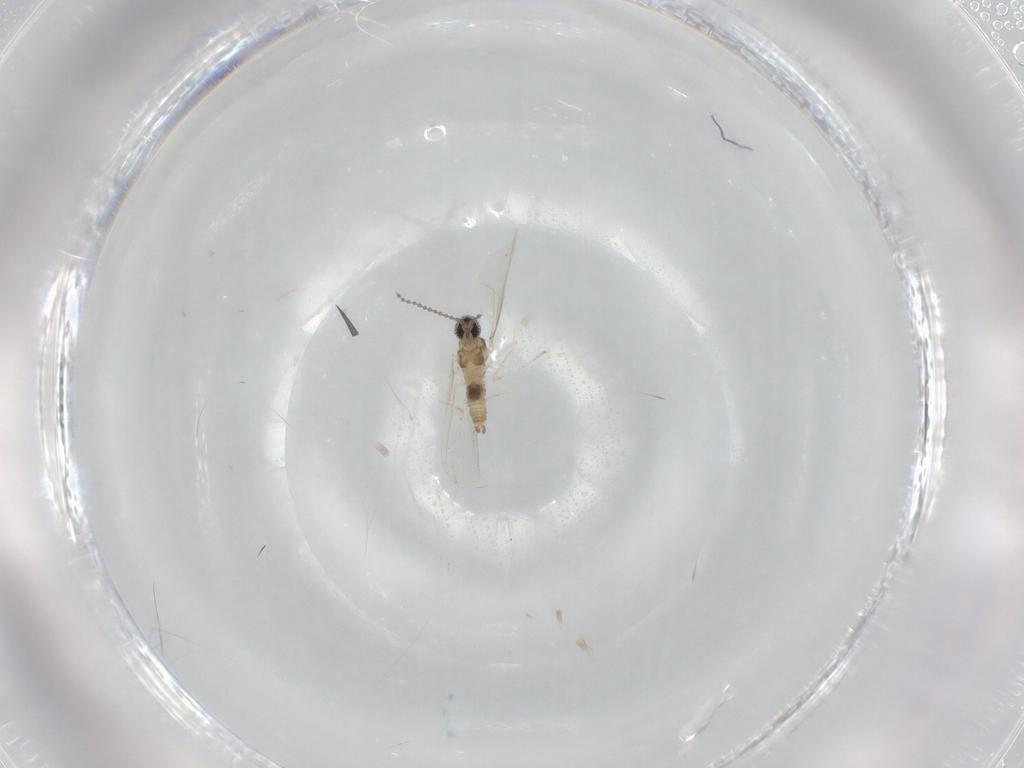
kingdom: Animalia
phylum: Arthropoda
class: Insecta
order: Diptera
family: Cecidomyiidae
